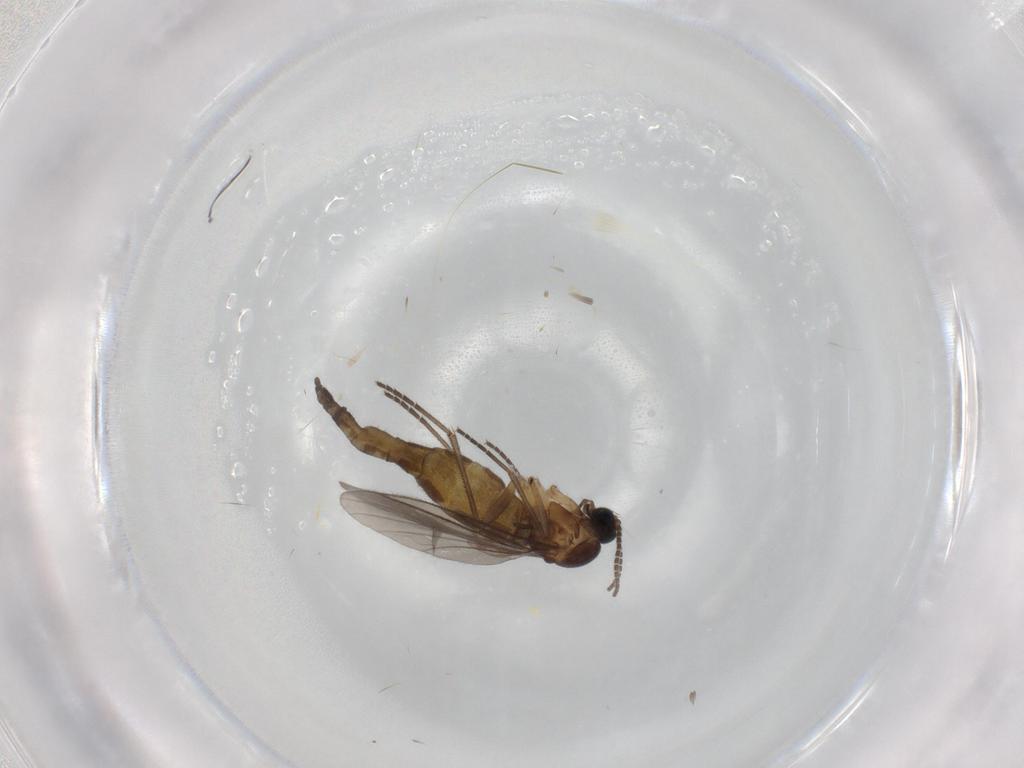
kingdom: Animalia
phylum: Arthropoda
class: Insecta
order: Diptera
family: Sciaridae
